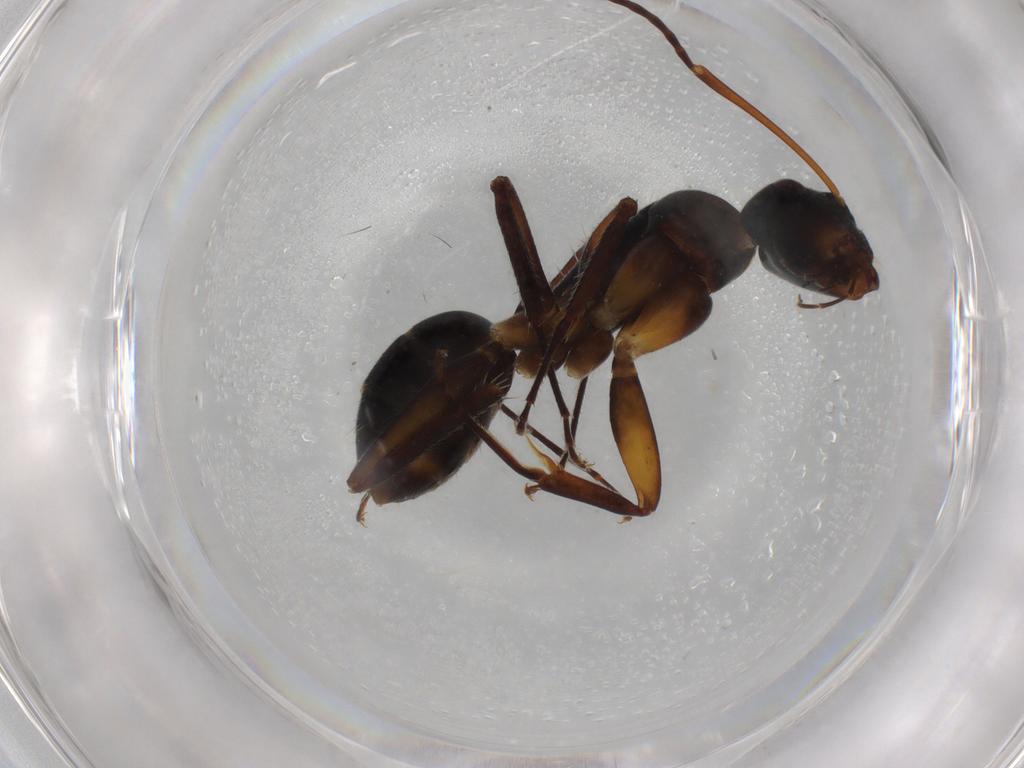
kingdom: Animalia
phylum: Arthropoda
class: Insecta
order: Hymenoptera
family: Formicidae
